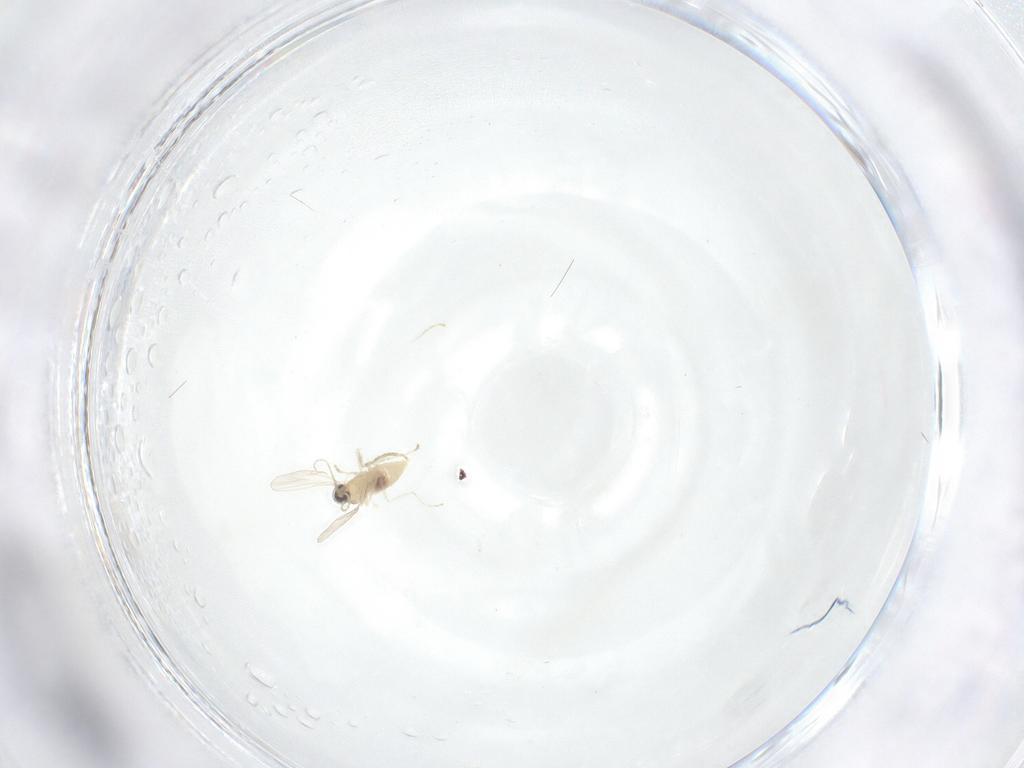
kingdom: Animalia
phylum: Arthropoda
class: Insecta
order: Diptera
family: Cecidomyiidae
